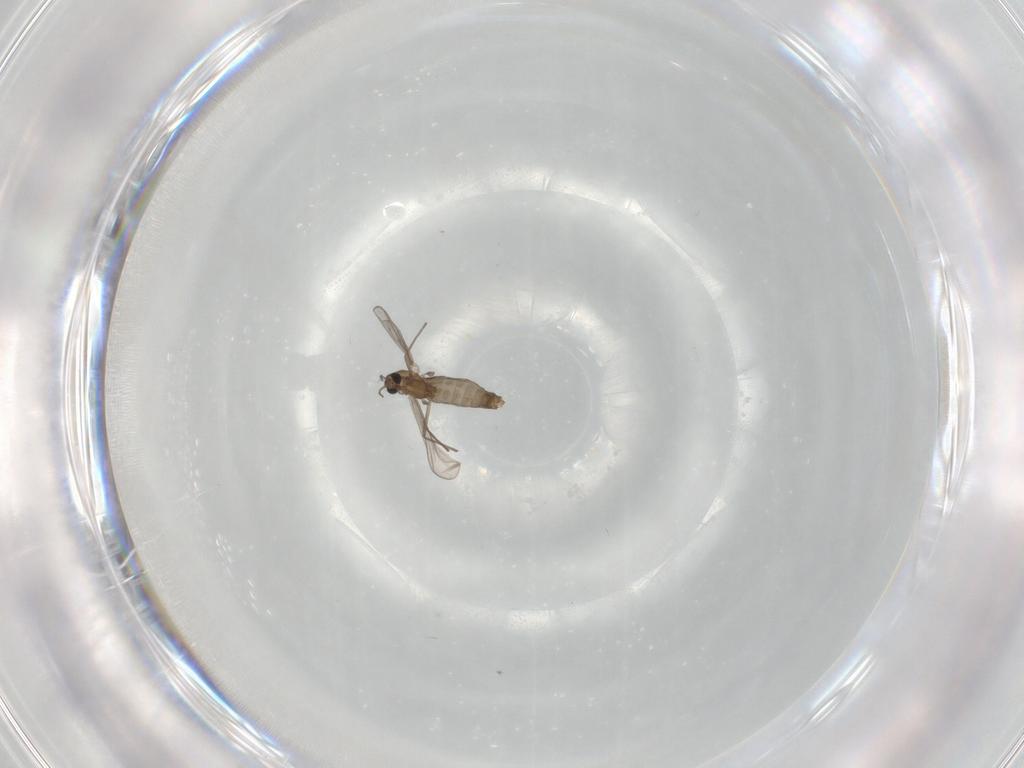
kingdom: Animalia
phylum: Arthropoda
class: Insecta
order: Diptera
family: Chironomidae
